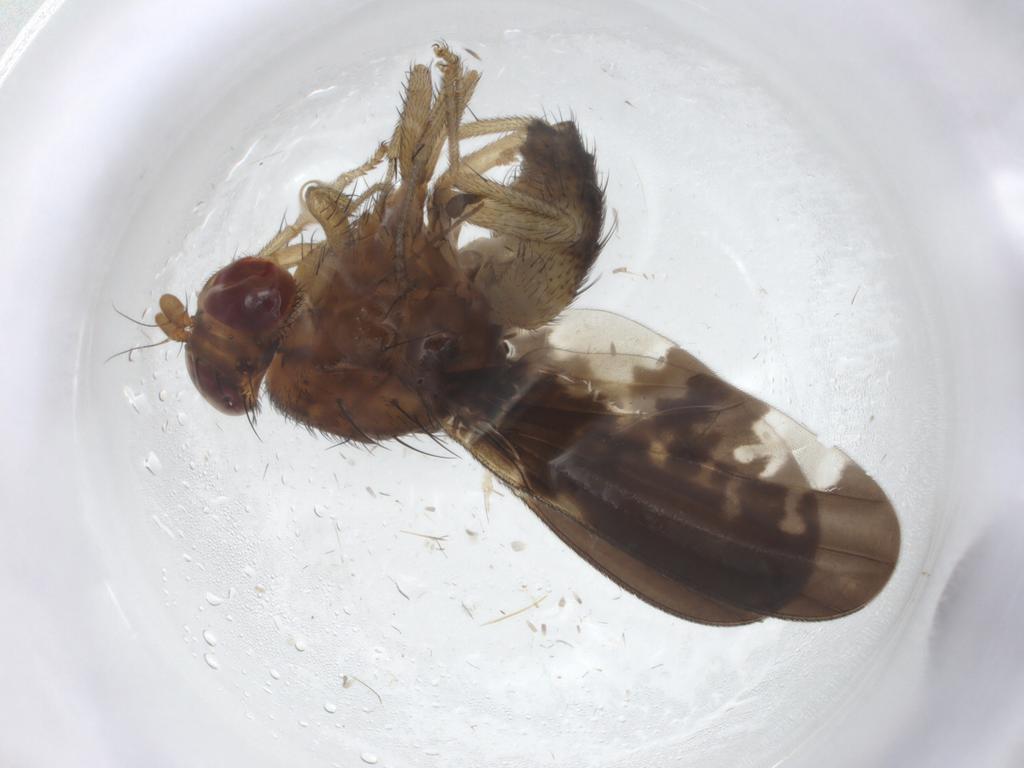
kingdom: Animalia
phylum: Arthropoda
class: Insecta
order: Diptera
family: Ditomyiidae
